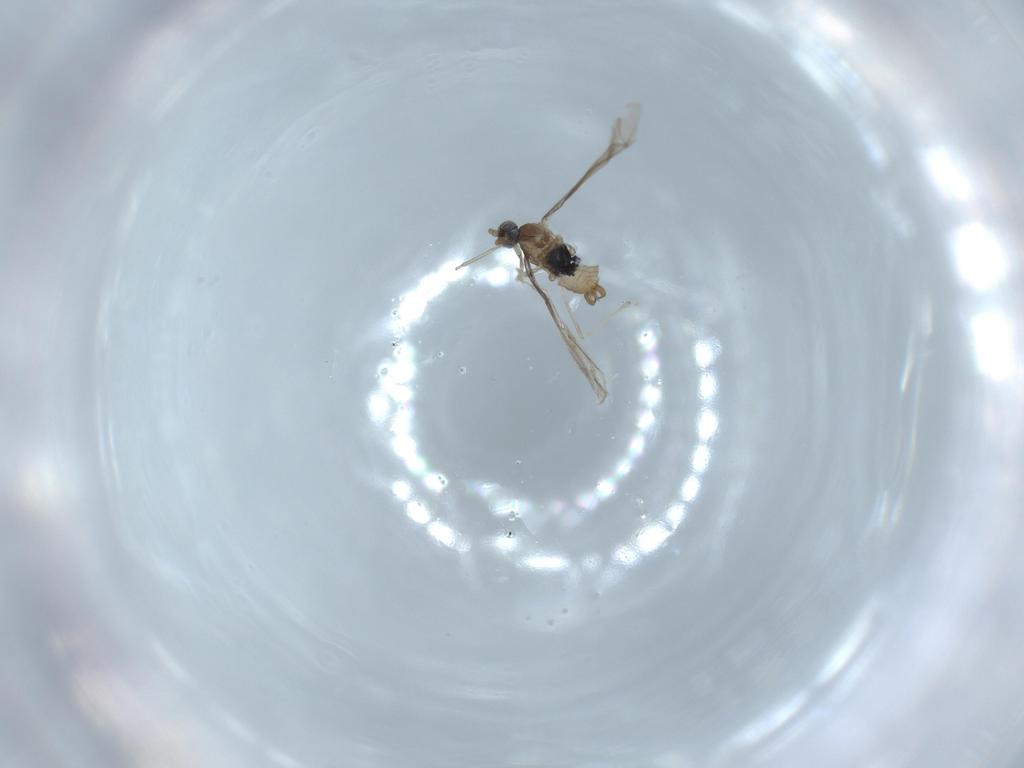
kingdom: Animalia
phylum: Arthropoda
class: Insecta
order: Diptera
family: Cecidomyiidae
